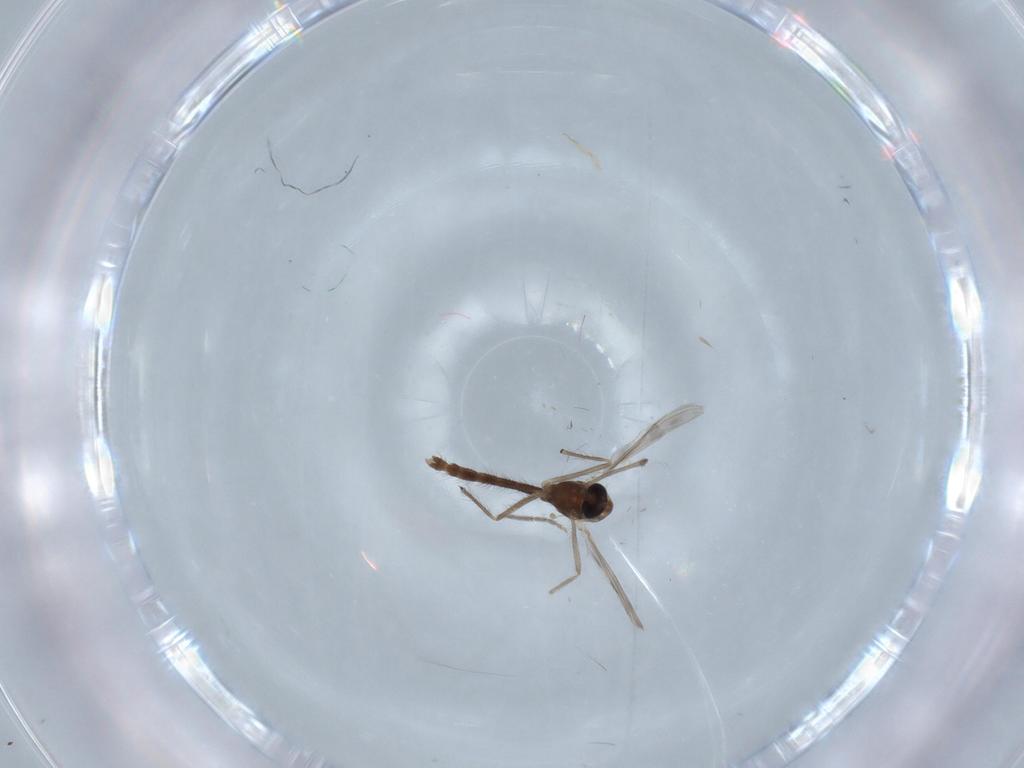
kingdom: Animalia
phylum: Arthropoda
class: Insecta
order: Diptera
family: Chironomidae
